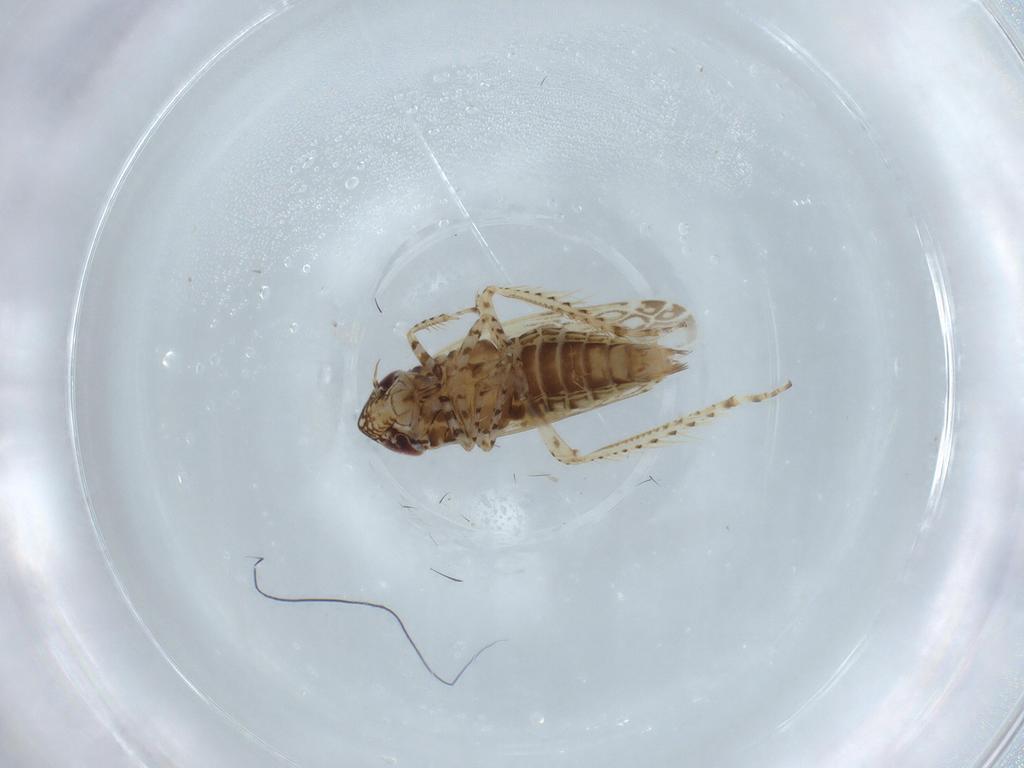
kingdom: Animalia
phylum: Arthropoda
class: Insecta
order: Hemiptera
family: Cicadellidae
